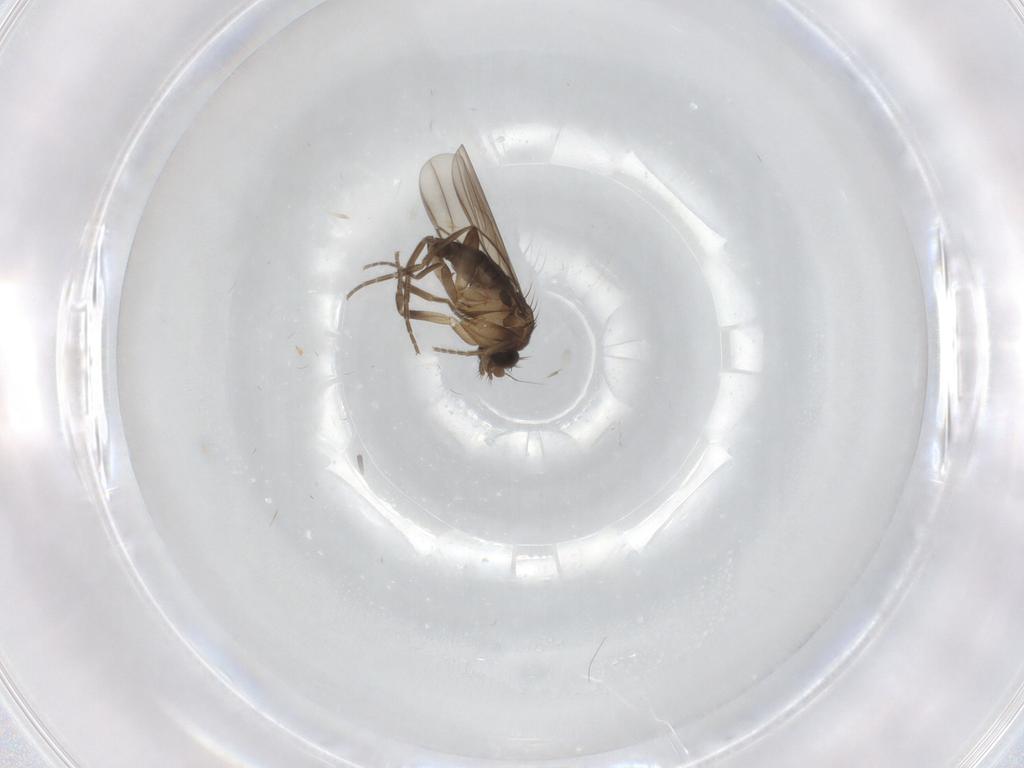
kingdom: Animalia
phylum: Arthropoda
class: Insecta
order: Diptera
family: Phoridae
